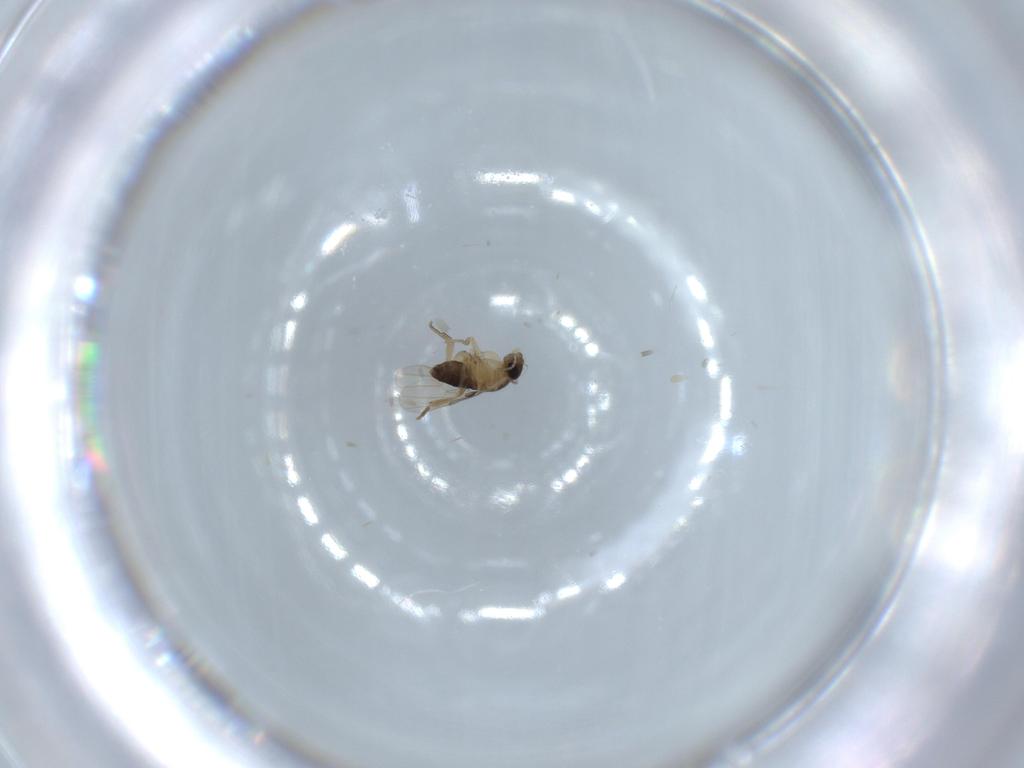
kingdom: Animalia
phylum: Arthropoda
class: Insecta
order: Diptera
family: Phoridae
